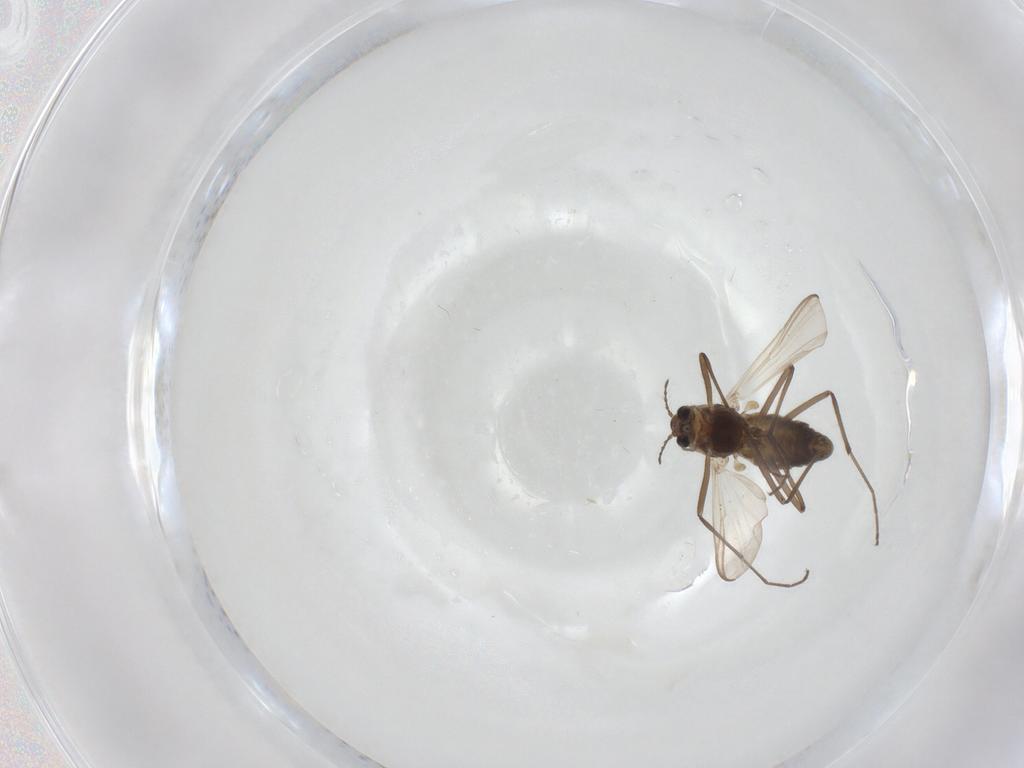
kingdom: Animalia
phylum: Arthropoda
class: Insecta
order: Diptera
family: Chironomidae
